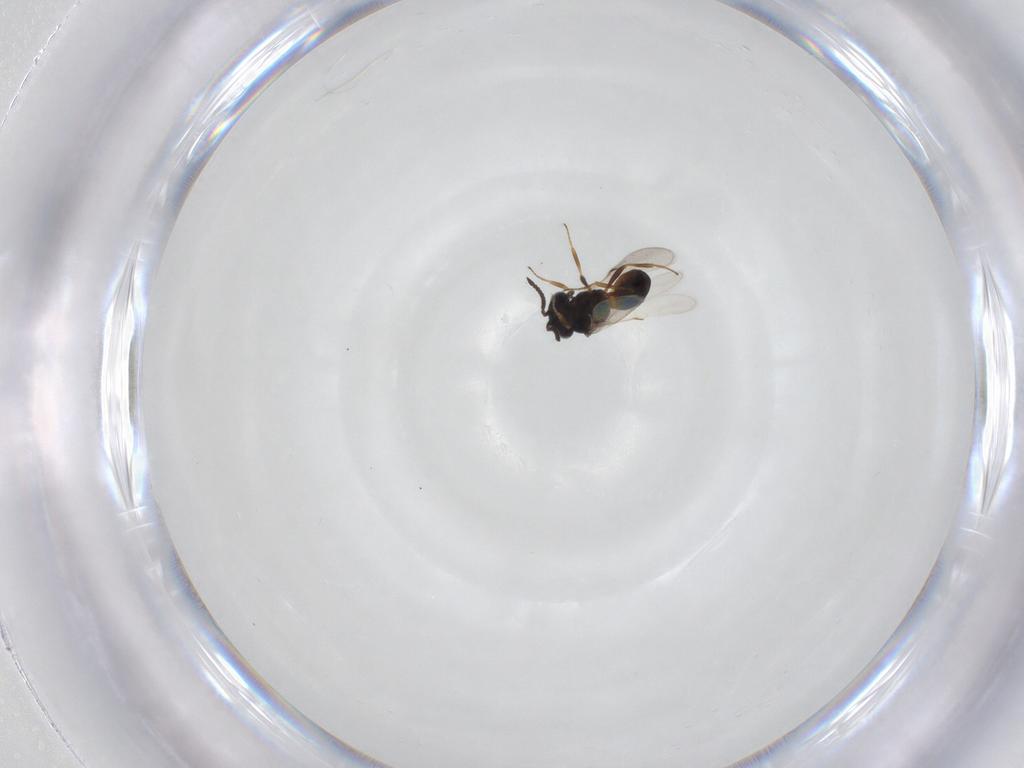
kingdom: Animalia
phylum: Arthropoda
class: Arachnida
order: Araneae
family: Pholcidae
